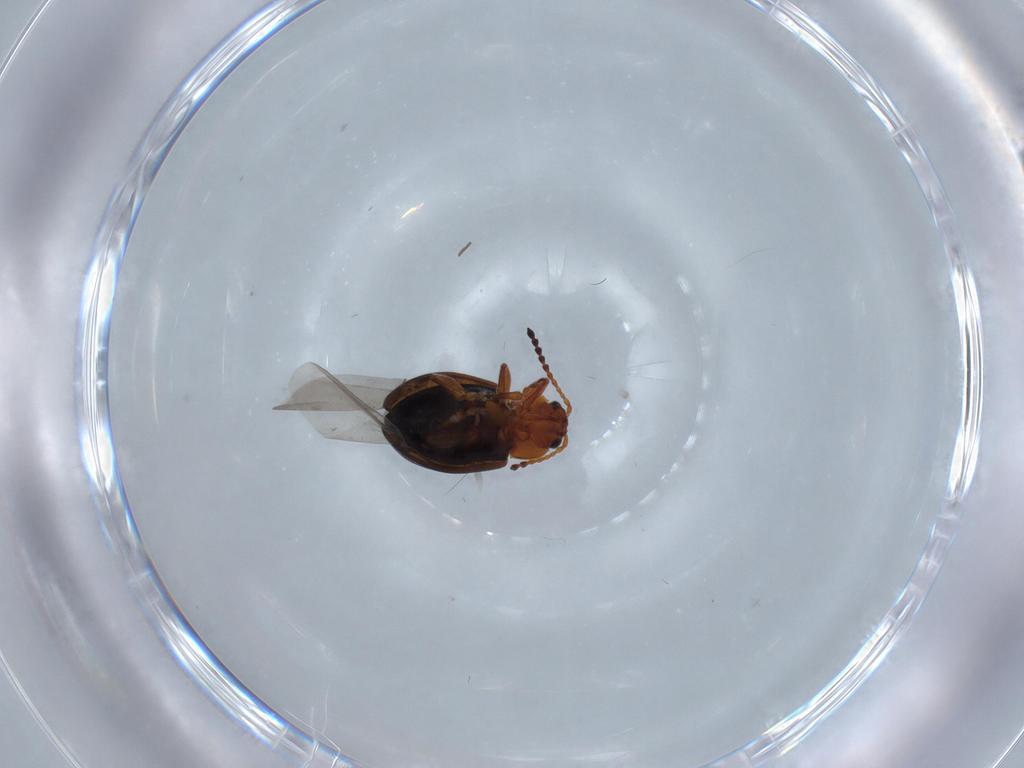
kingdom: Animalia
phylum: Arthropoda
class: Insecta
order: Coleoptera
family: Chrysomelidae
